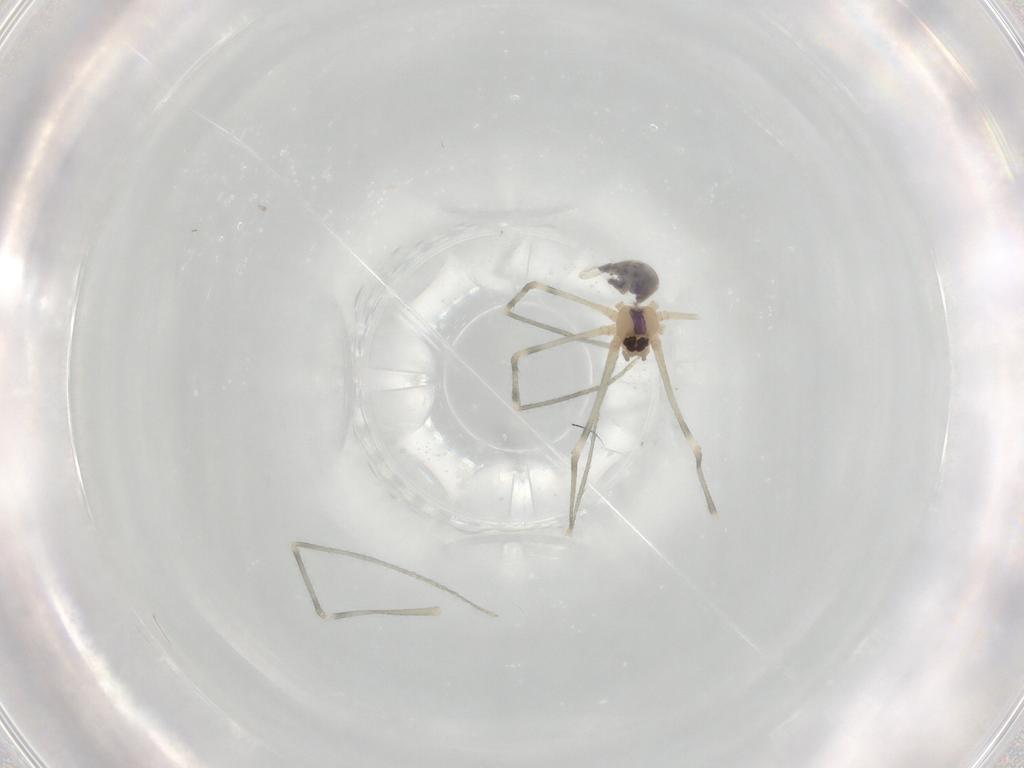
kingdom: Animalia
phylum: Arthropoda
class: Arachnida
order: Araneae
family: Pholcidae
